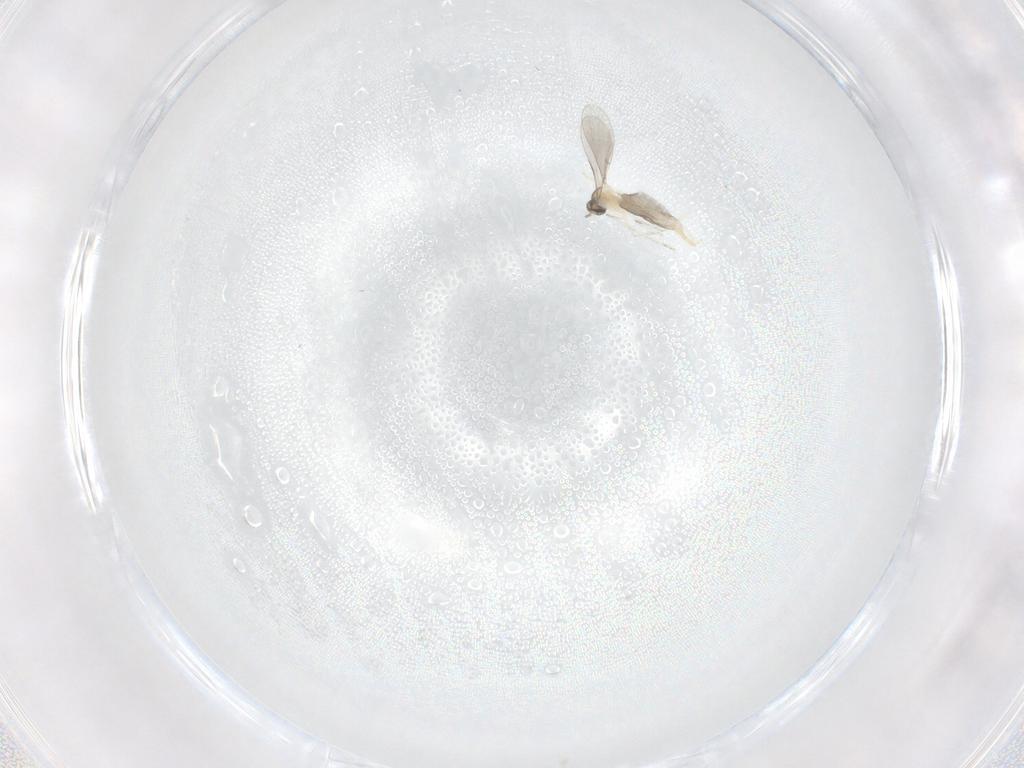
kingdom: Animalia
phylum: Arthropoda
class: Insecta
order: Diptera
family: Cecidomyiidae
